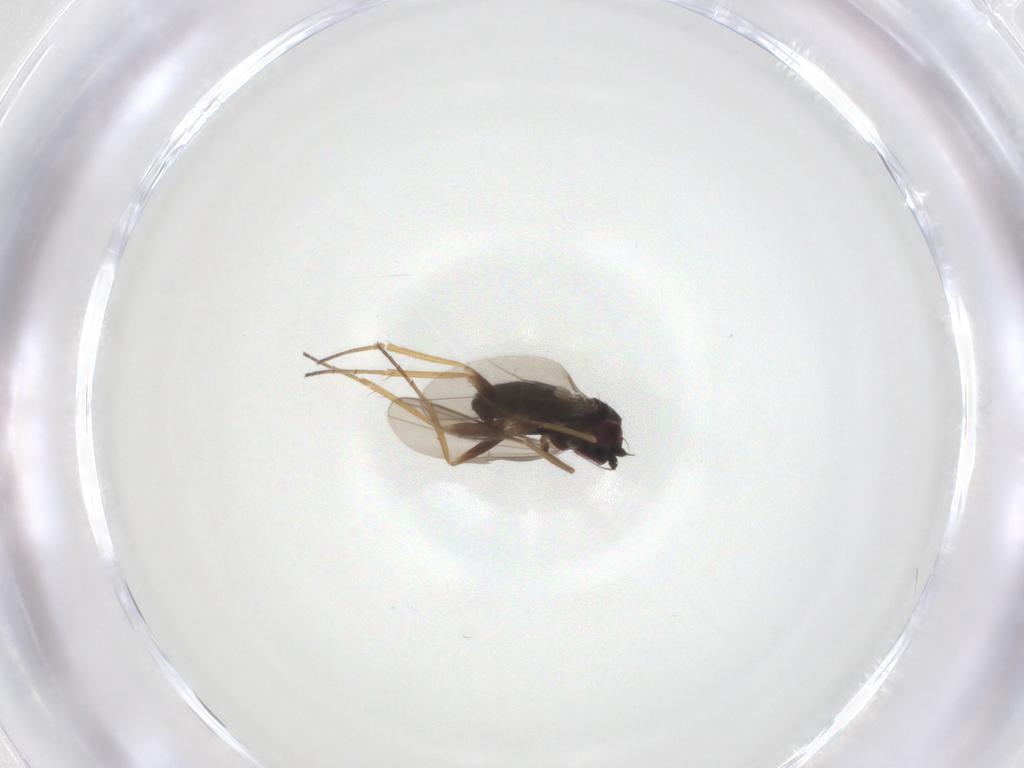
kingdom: Animalia
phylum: Arthropoda
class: Insecta
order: Diptera
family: Dolichopodidae
